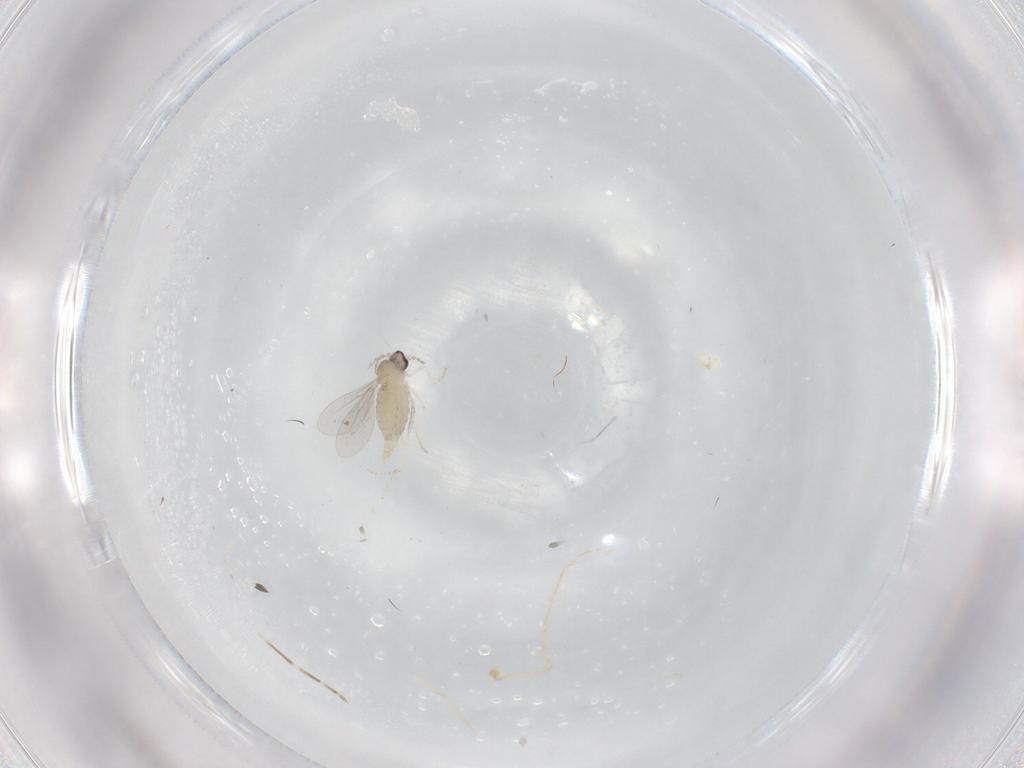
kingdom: Animalia
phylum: Arthropoda
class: Insecta
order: Diptera
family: Cecidomyiidae
